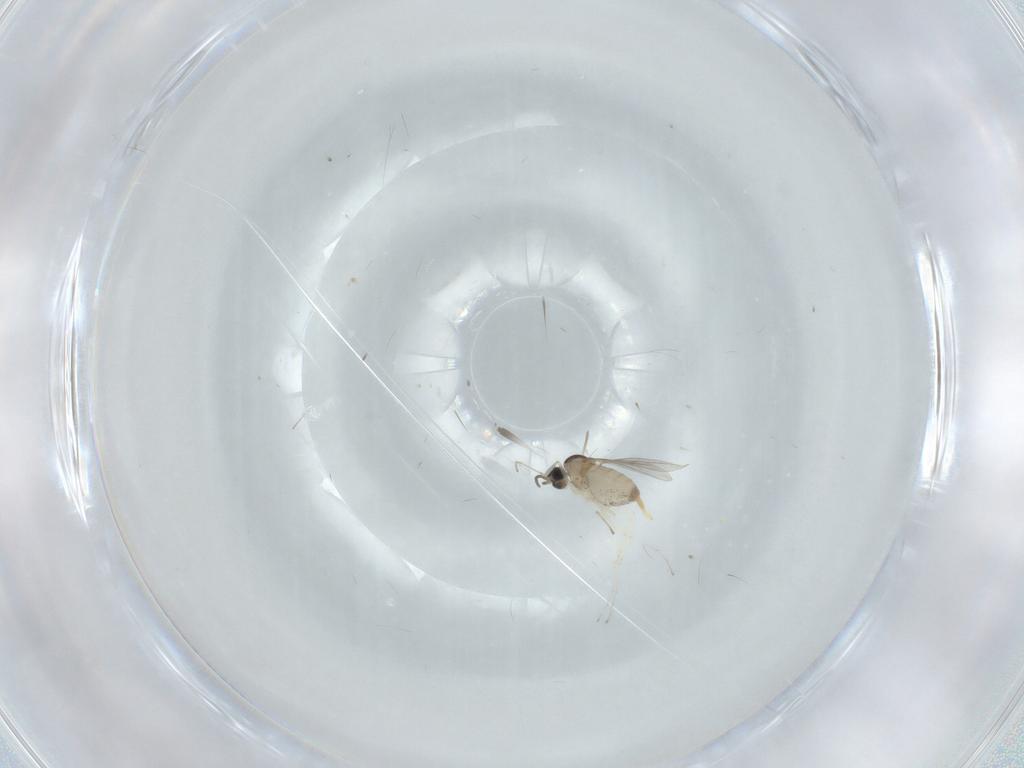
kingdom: Animalia
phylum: Arthropoda
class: Insecta
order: Diptera
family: Cecidomyiidae
